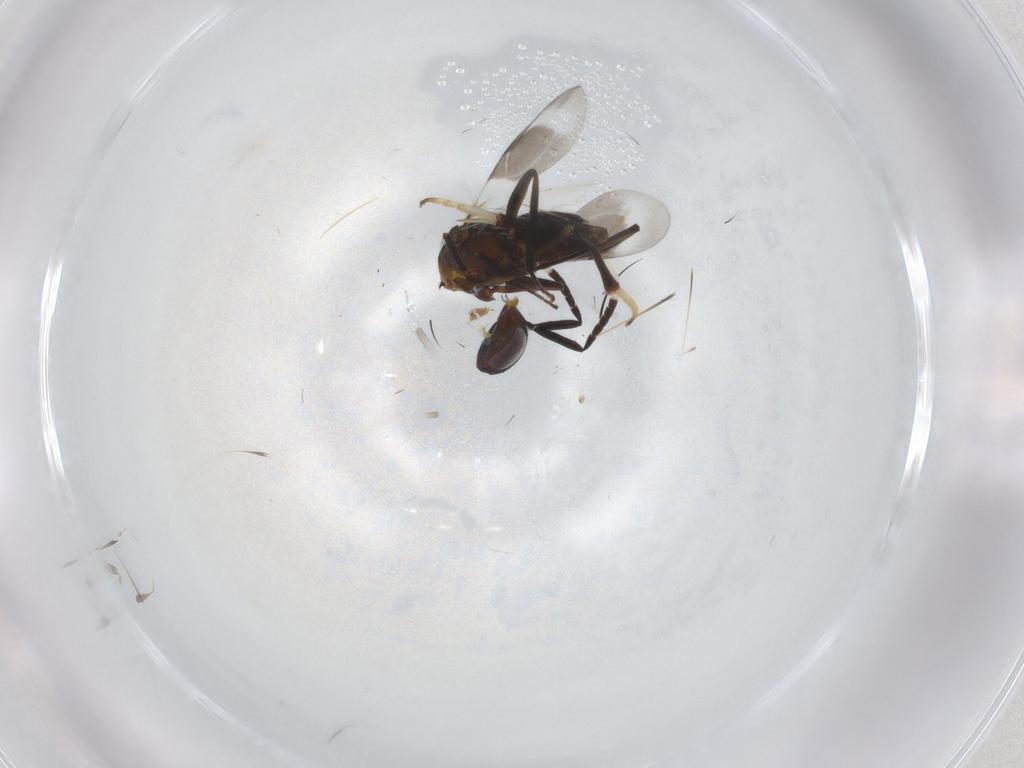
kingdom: Animalia
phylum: Arthropoda
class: Insecta
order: Hymenoptera
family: Encyrtidae
